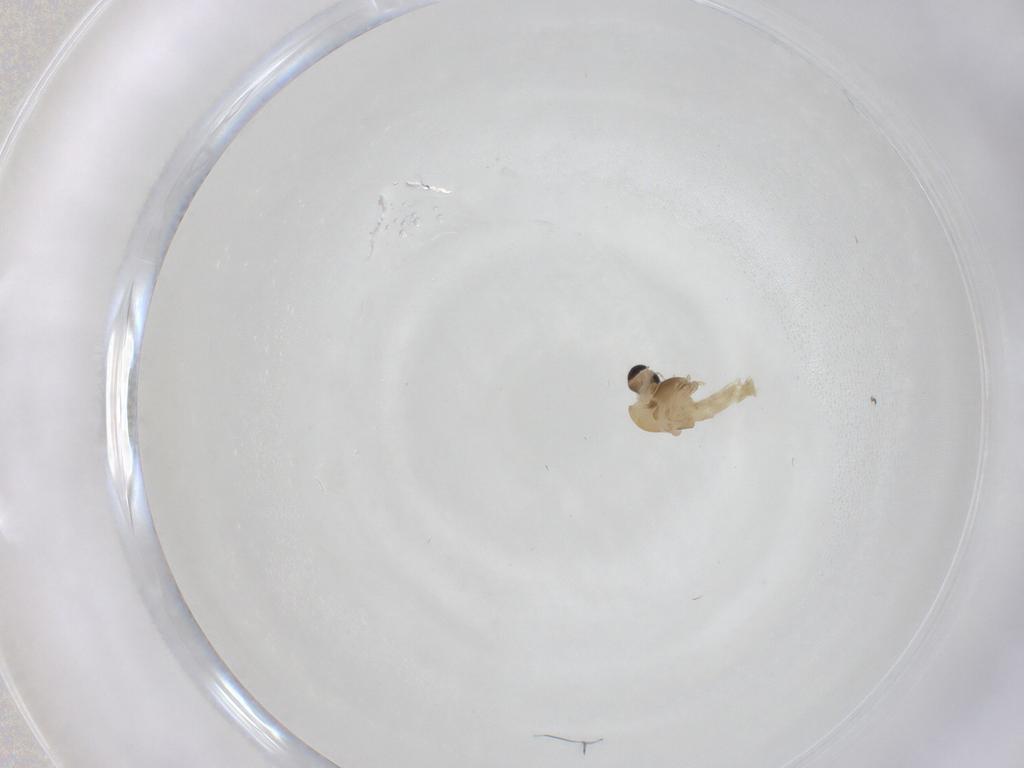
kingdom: Animalia
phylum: Arthropoda
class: Insecta
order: Diptera
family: Chironomidae
